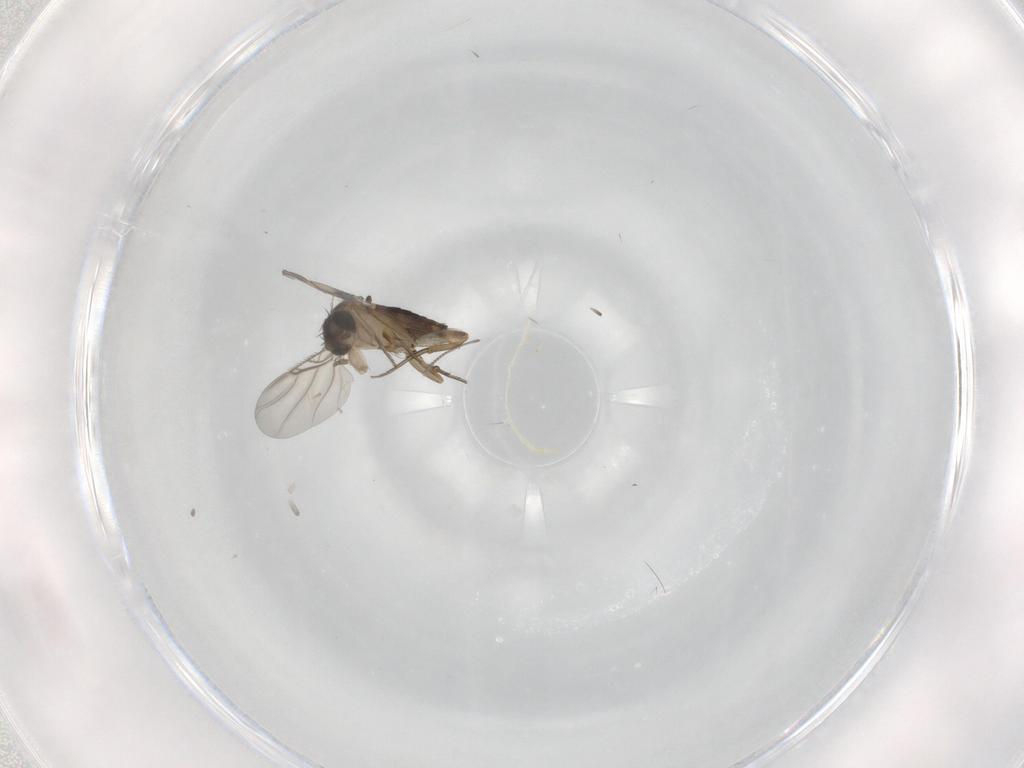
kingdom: Animalia
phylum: Arthropoda
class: Insecta
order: Diptera
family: Phoridae
